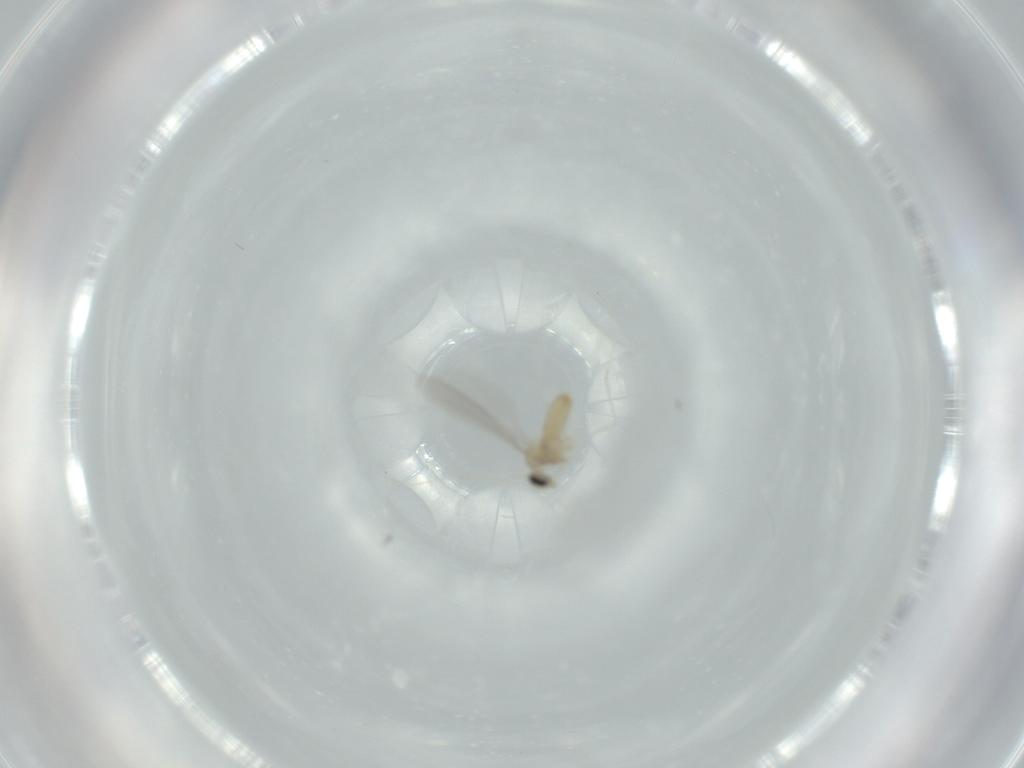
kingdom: Animalia
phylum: Arthropoda
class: Insecta
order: Diptera
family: Cecidomyiidae
